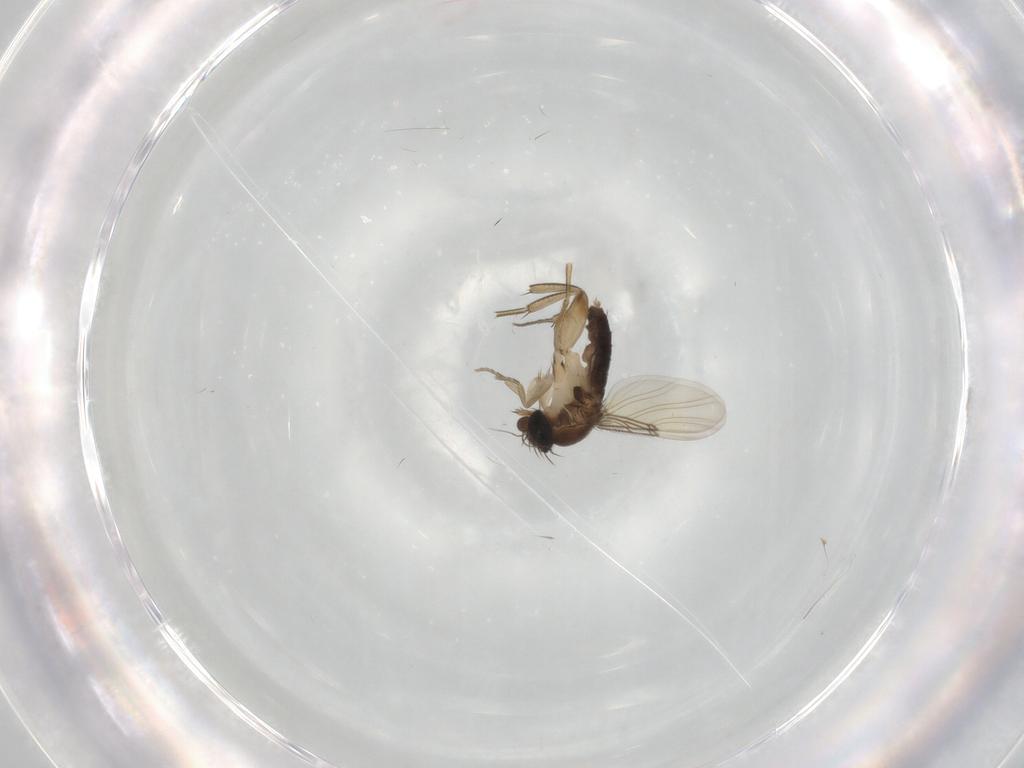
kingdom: Animalia
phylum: Arthropoda
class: Insecta
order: Diptera
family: Phoridae
